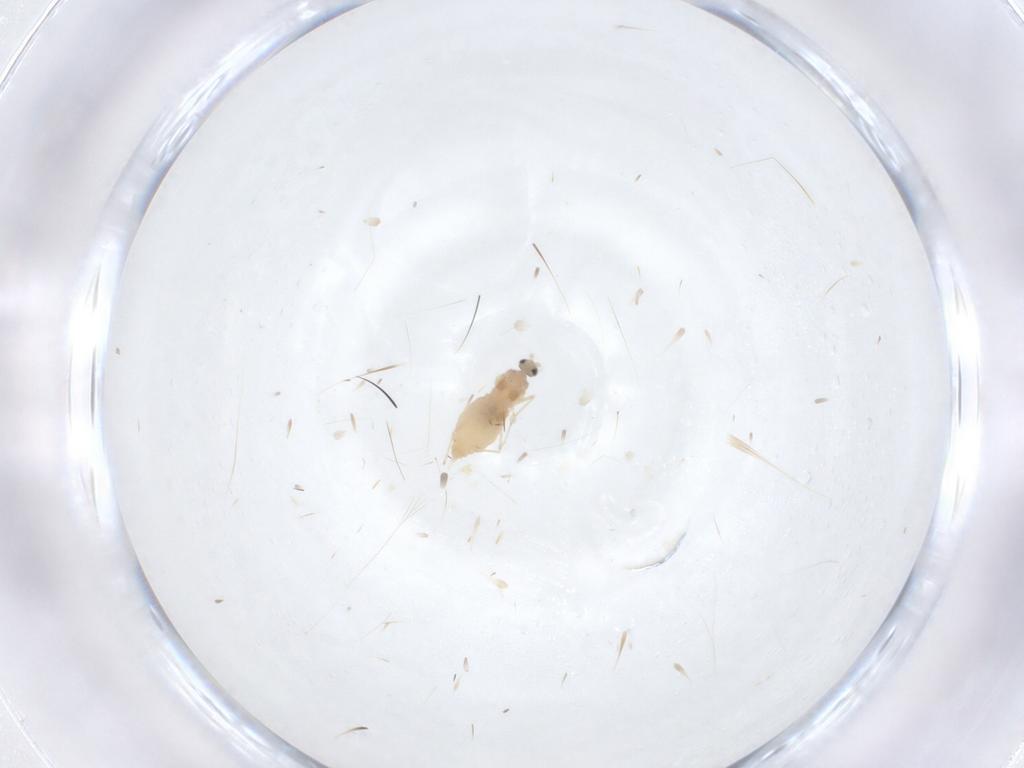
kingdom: Animalia
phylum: Arthropoda
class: Insecta
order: Diptera
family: Cecidomyiidae
